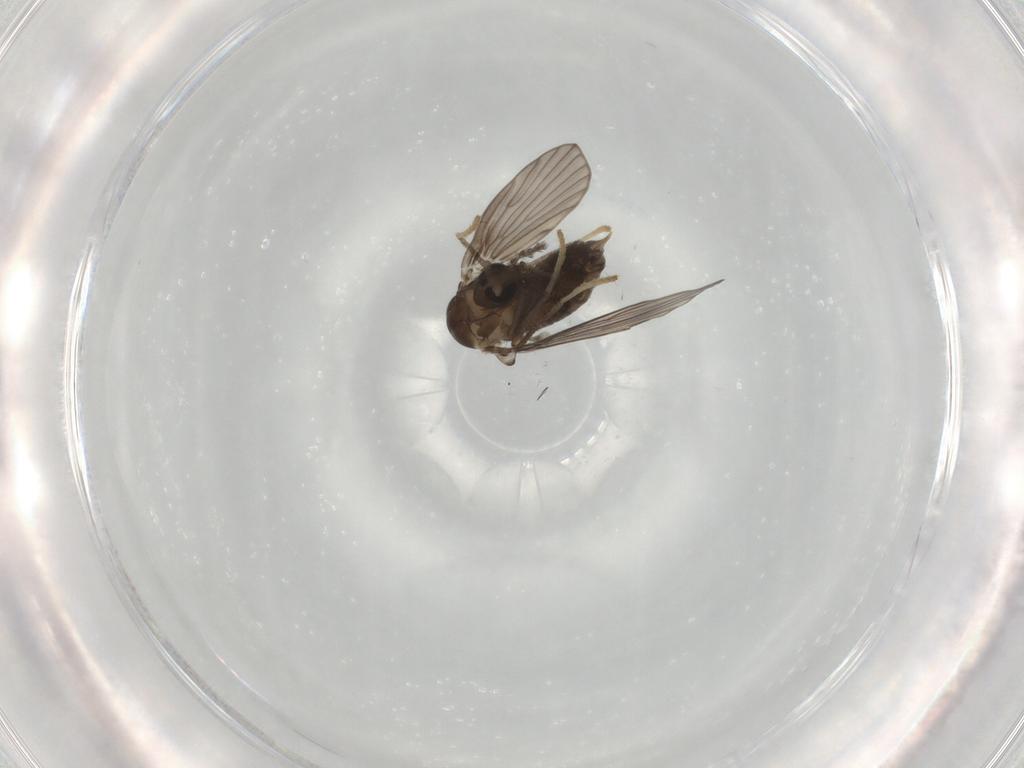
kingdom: Animalia
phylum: Arthropoda
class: Insecta
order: Diptera
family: Psychodidae
